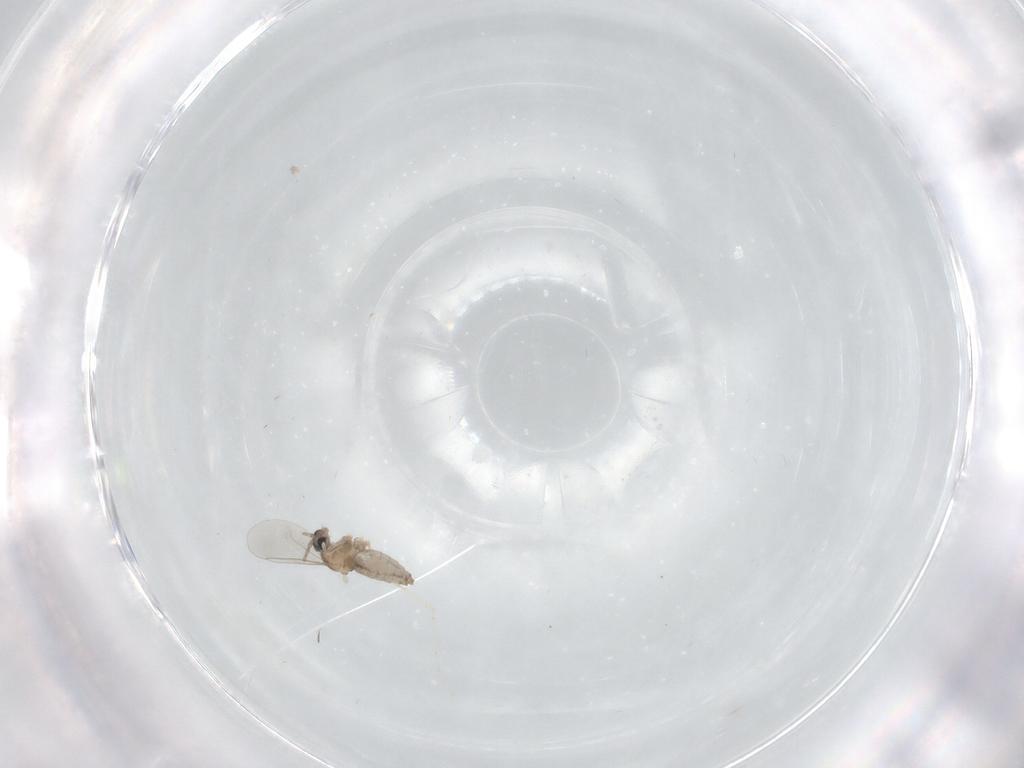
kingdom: Animalia
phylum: Arthropoda
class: Insecta
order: Diptera
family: Cecidomyiidae
